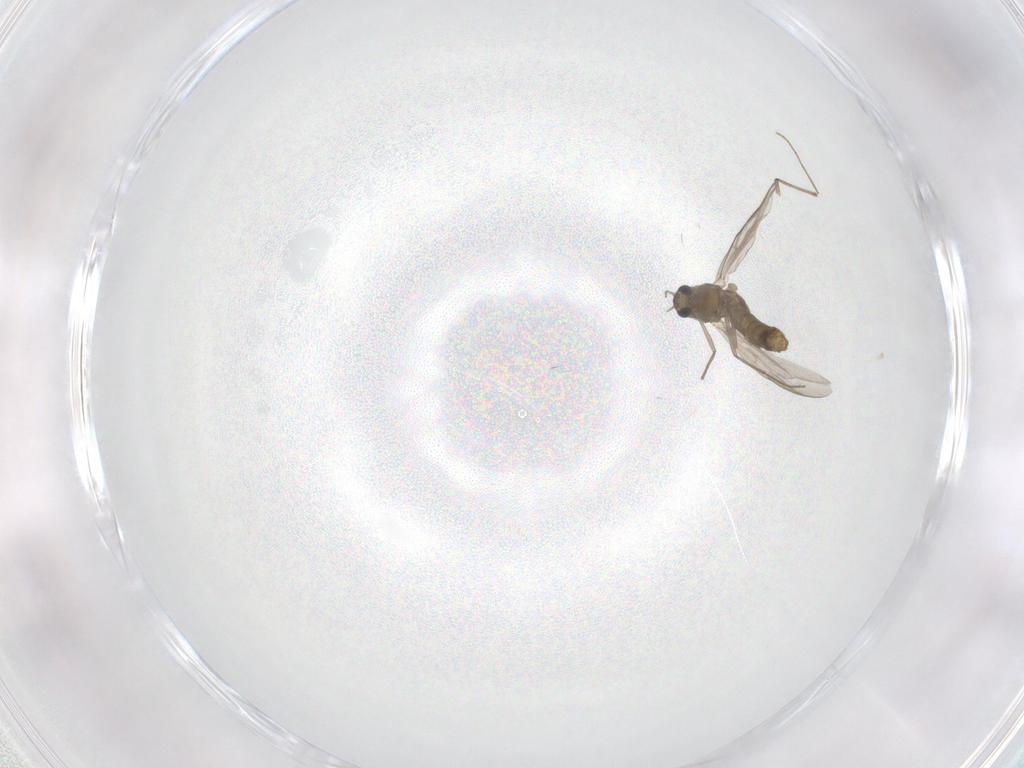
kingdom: Animalia
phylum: Arthropoda
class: Insecta
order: Diptera
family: Chironomidae
